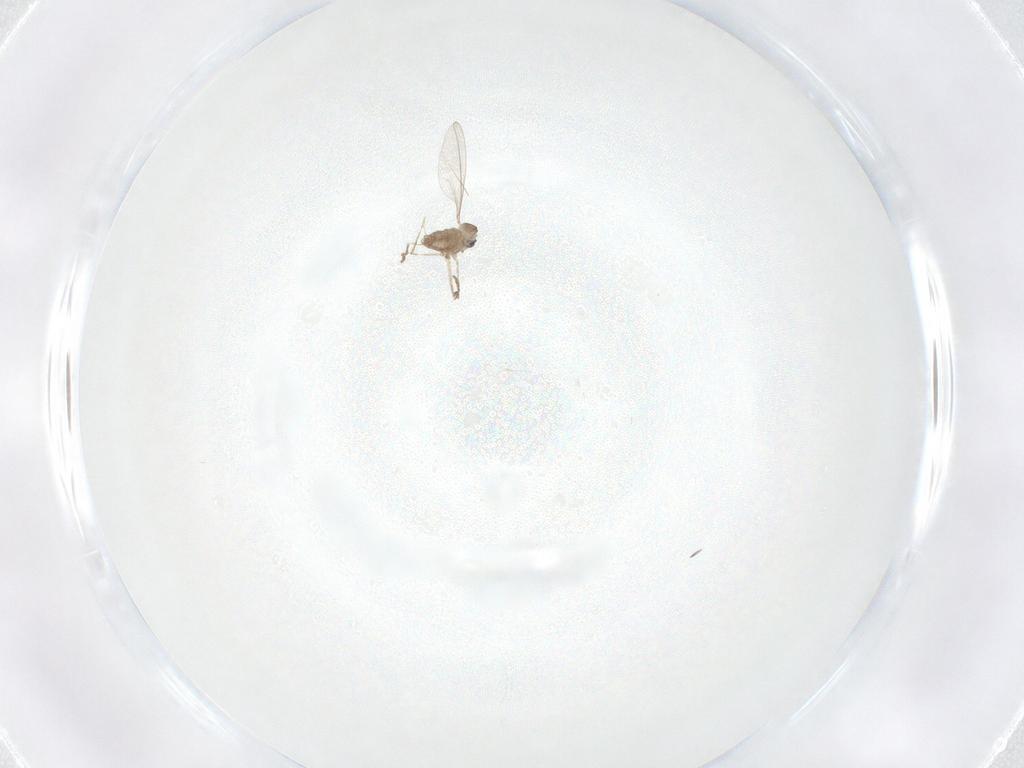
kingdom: Animalia
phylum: Arthropoda
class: Insecta
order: Diptera
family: Cecidomyiidae
